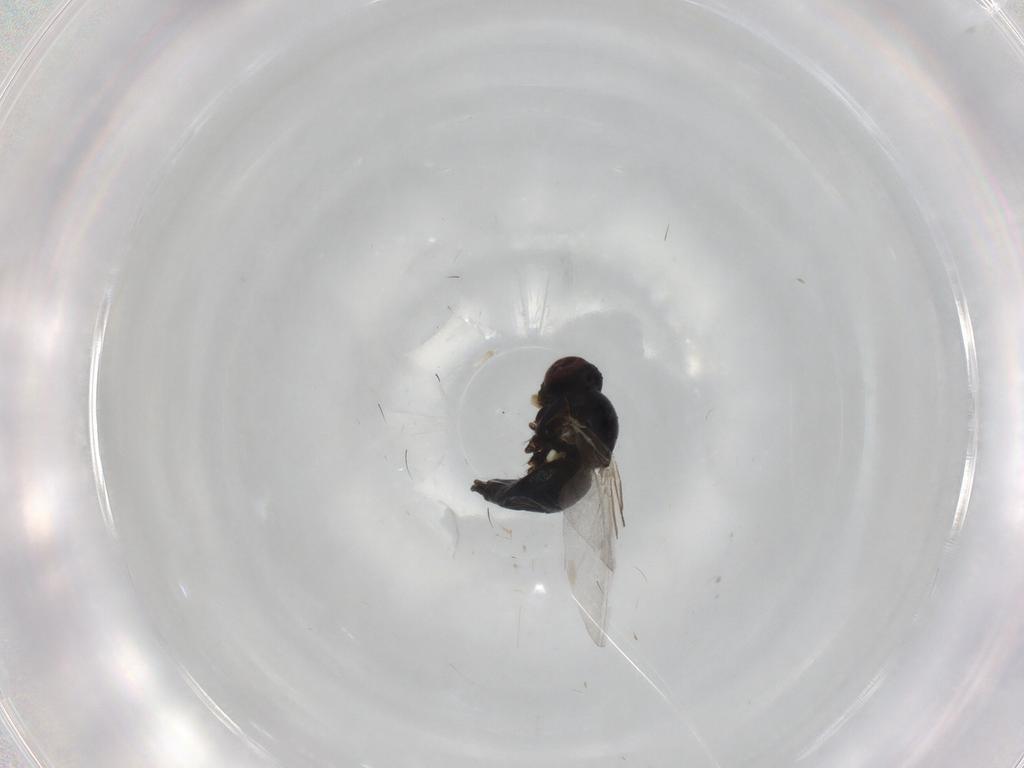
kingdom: Animalia
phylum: Arthropoda
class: Insecta
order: Diptera
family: Agromyzidae
